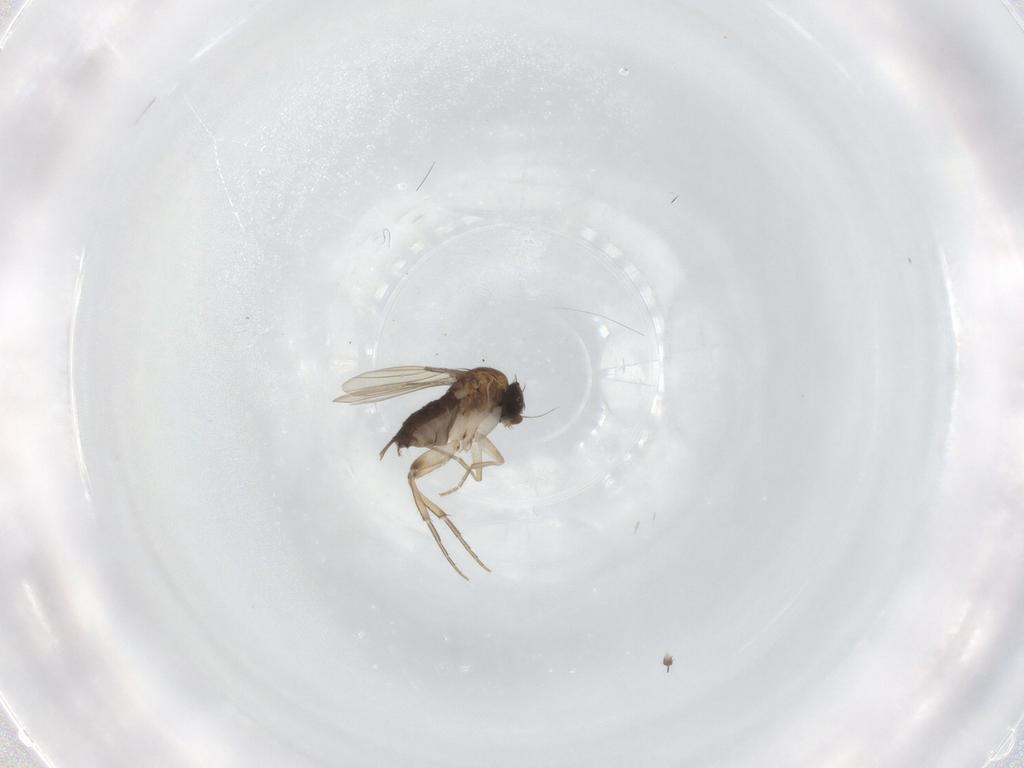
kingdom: Animalia
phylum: Arthropoda
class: Insecta
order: Diptera
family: Phoridae
